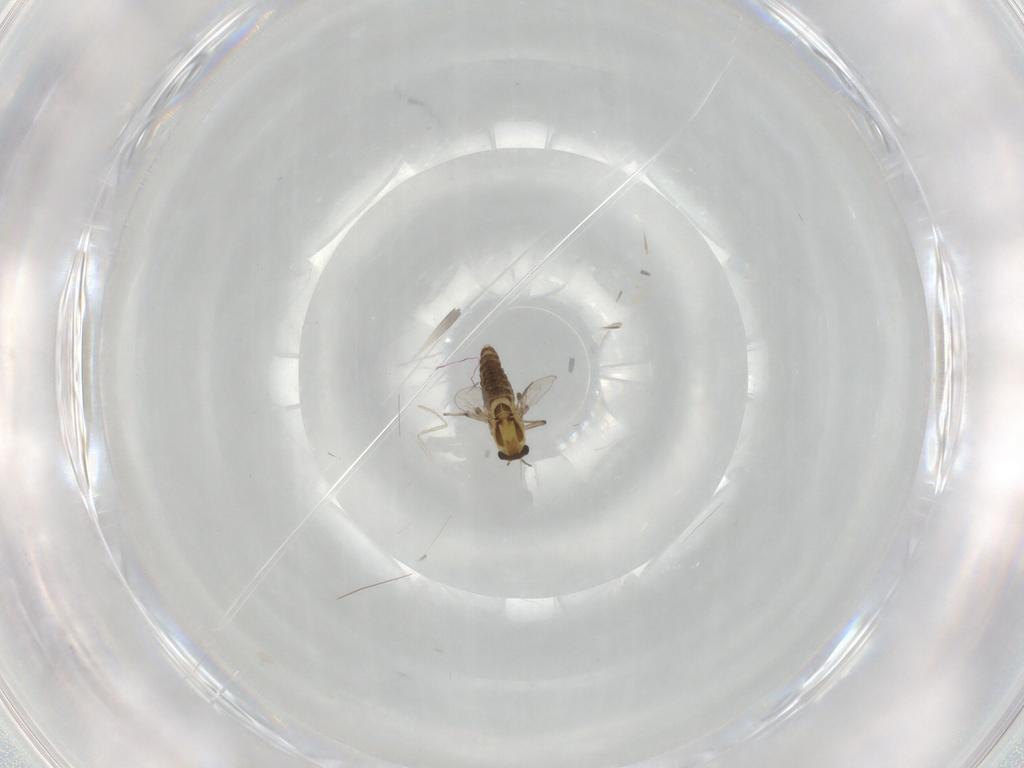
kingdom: Animalia
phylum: Arthropoda
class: Insecta
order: Diptera
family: Chironomidae
